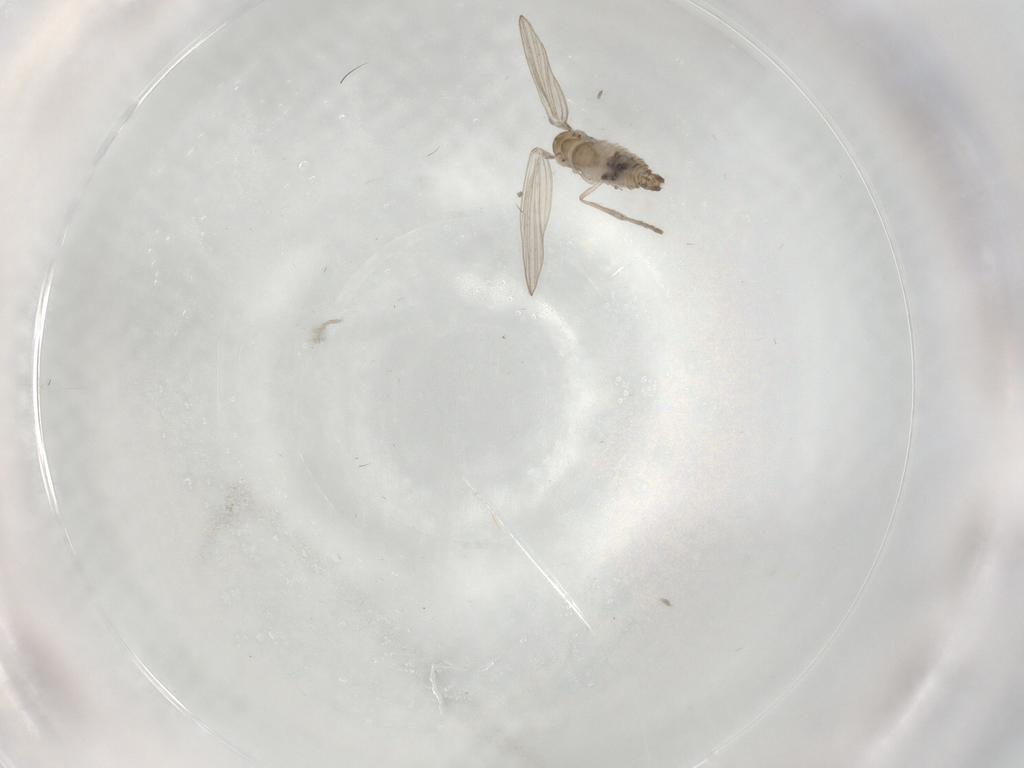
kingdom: Animalia
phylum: Arthropoda
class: Insecta
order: Diptera
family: Psychodidae
